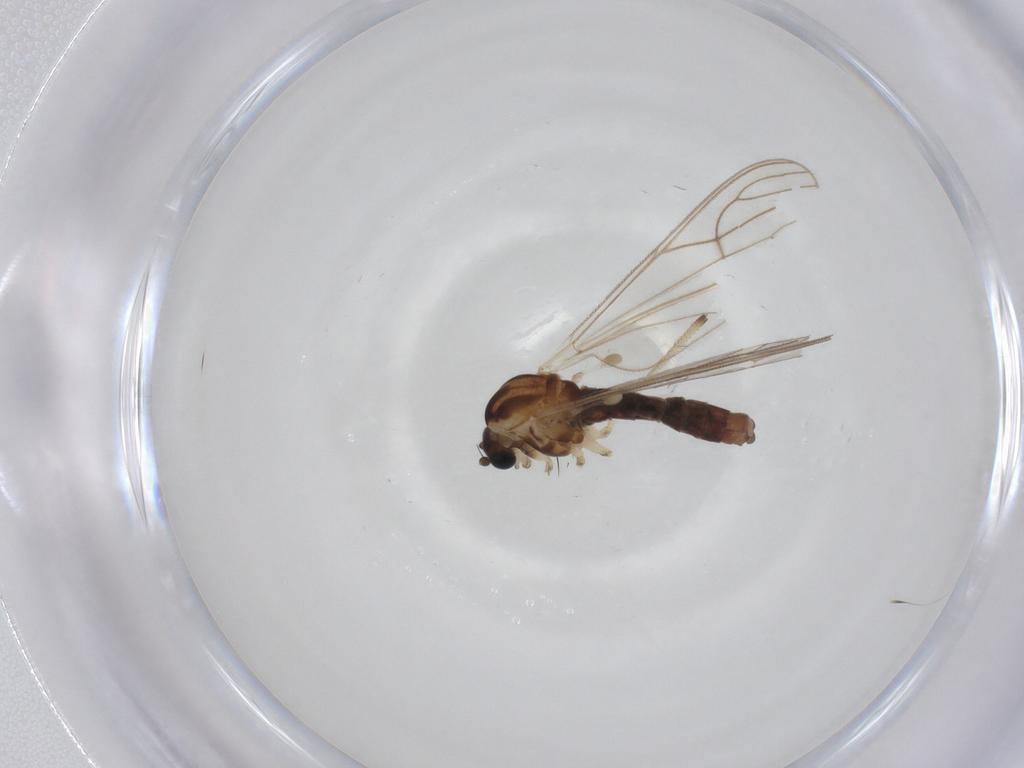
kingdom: Animalia
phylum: Arthropoda
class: Insecta
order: Diptera
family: Chironomidae
